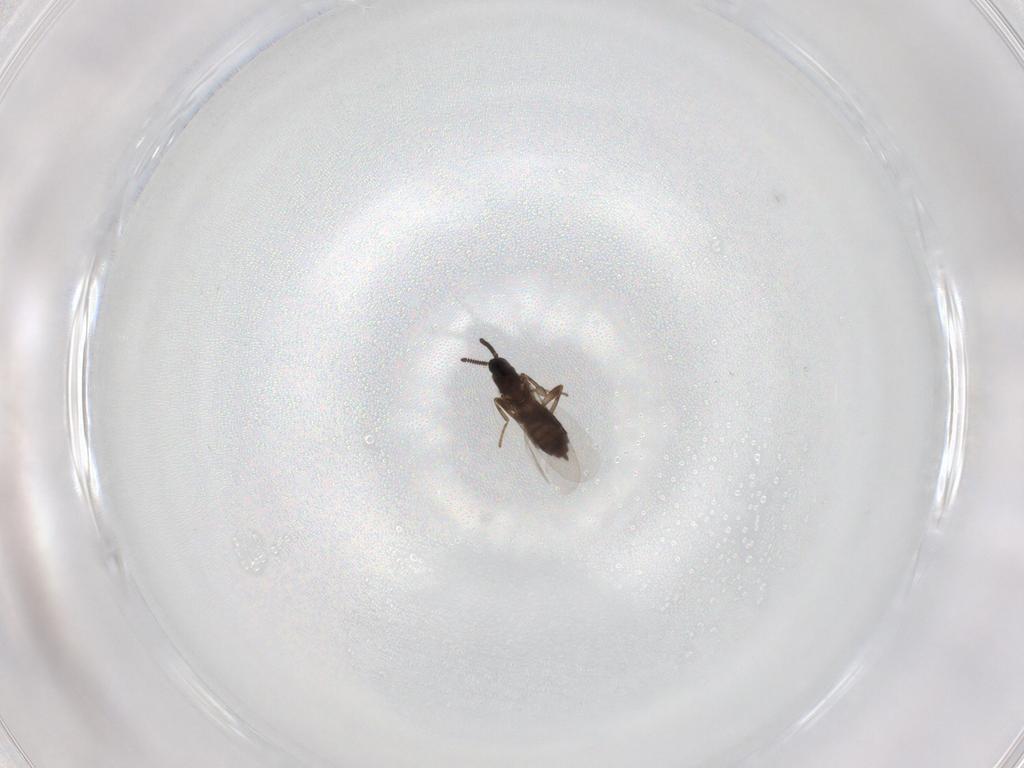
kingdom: Animalia
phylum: Arthropoda
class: Insecta
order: Diptera
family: Scatopsidae
